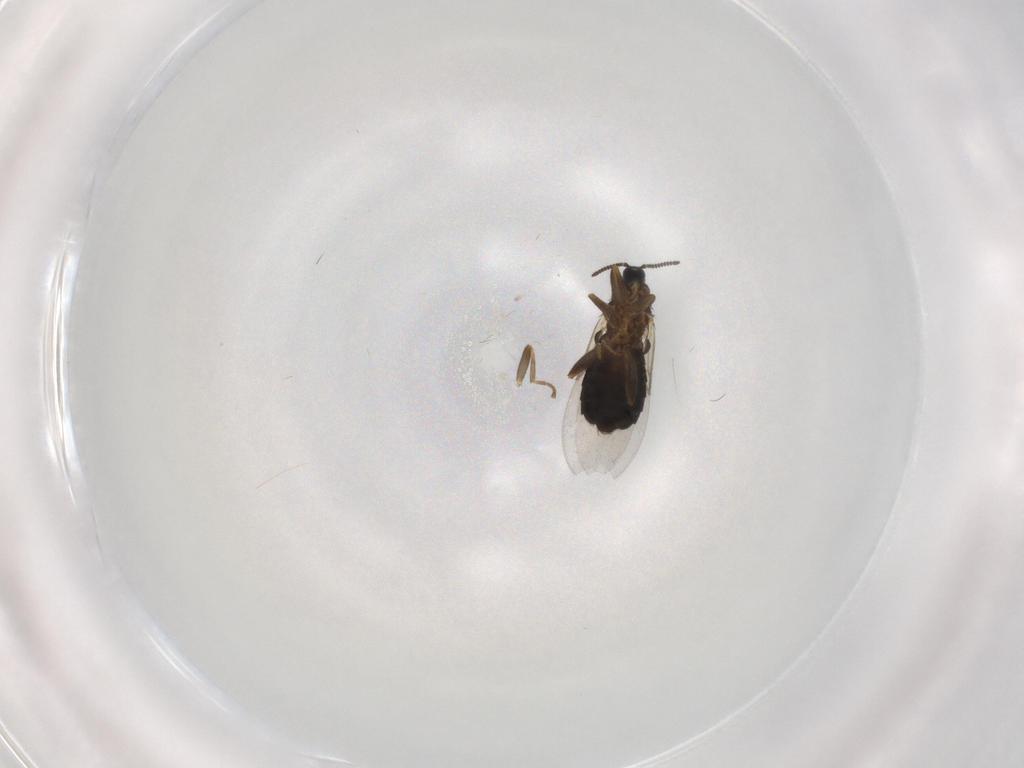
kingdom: Animalia
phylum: Arthropoda
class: Insecta
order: Diptera
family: Scatopsidae
